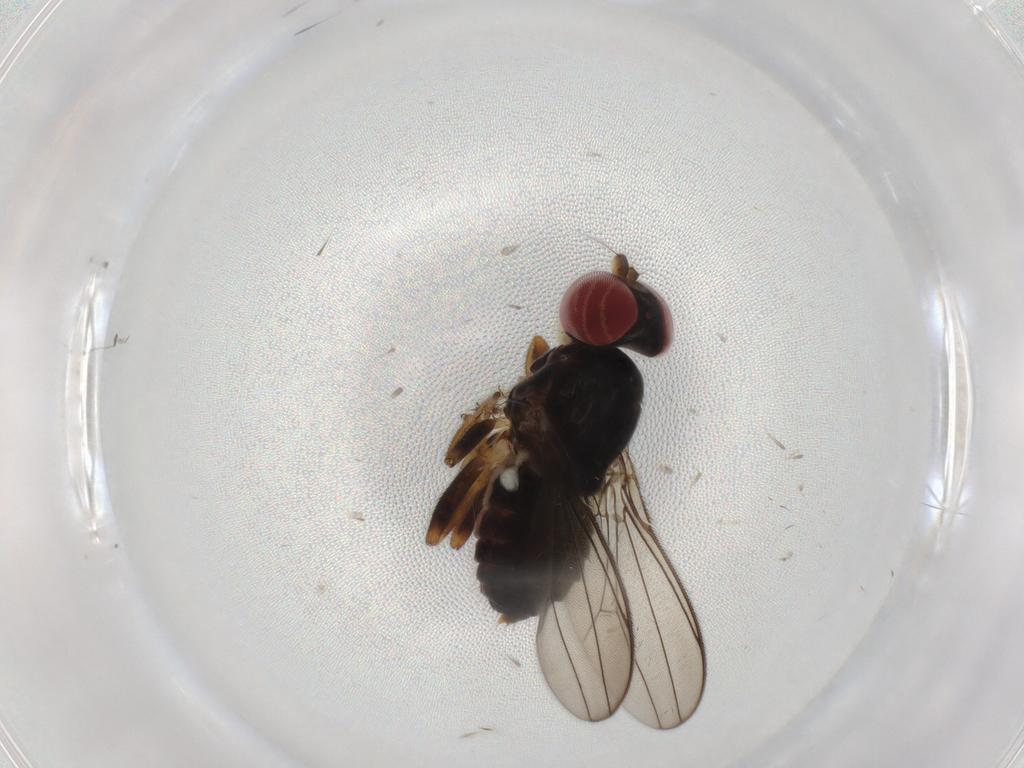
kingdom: Animalia
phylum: Arthropoda
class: Insecta
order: Diptera
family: Aulacigastridae
